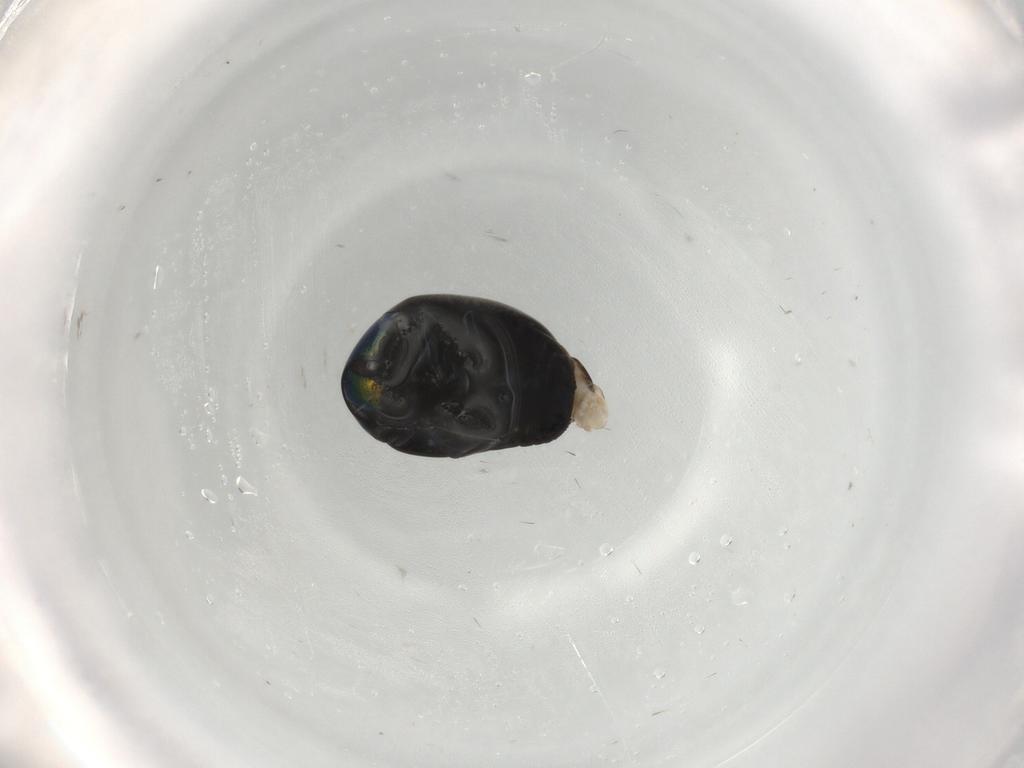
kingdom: Animalia
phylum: Arthropoda
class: Insecta
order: Coleoptera
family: Chrysomelidae
